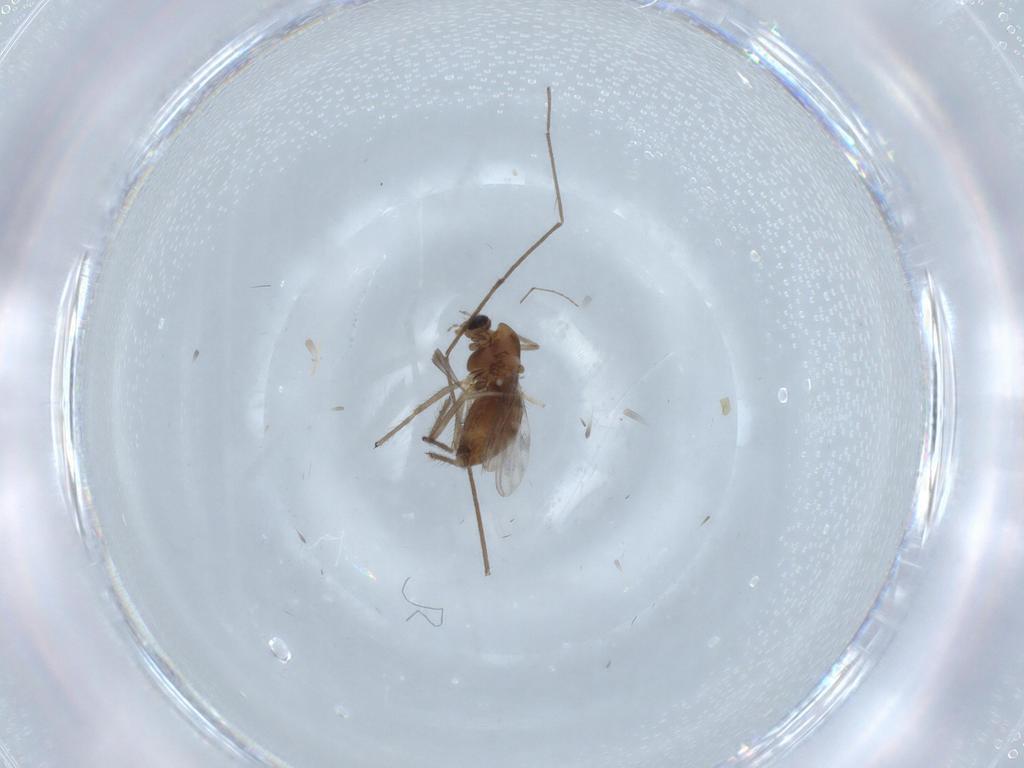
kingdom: Animalia
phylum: Arthropoda
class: Insecta
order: Diptera
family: Chironomidae
